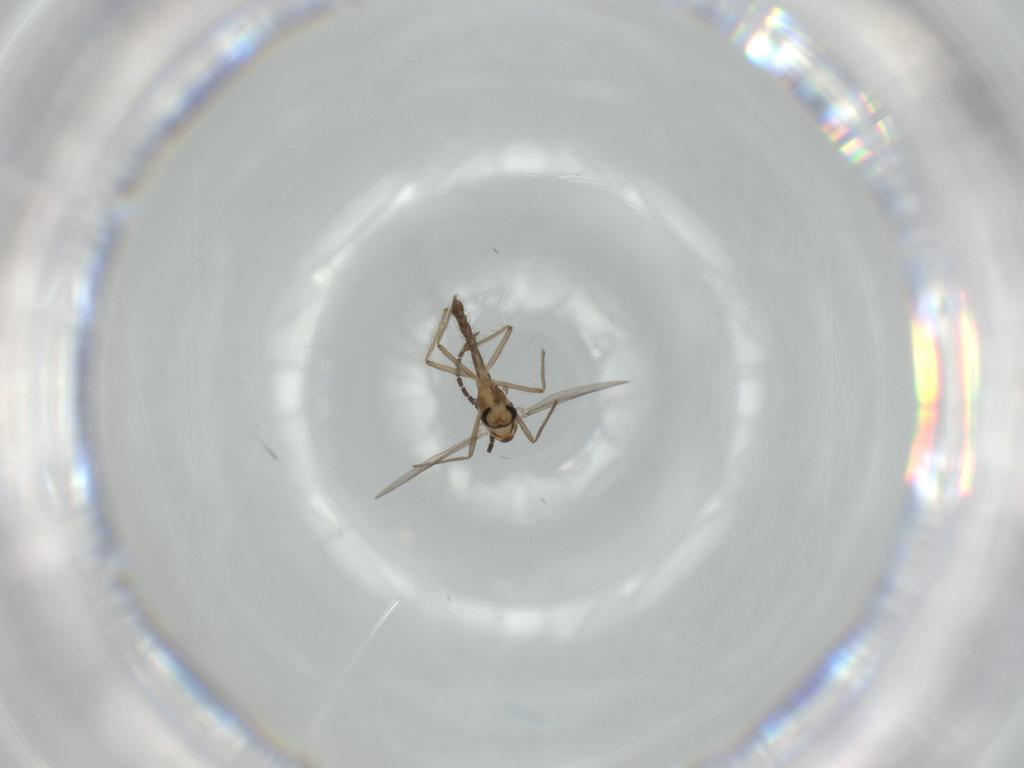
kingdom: Animalia
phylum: Arthropoda
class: Insecta
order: Diptera
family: Chironomidae
